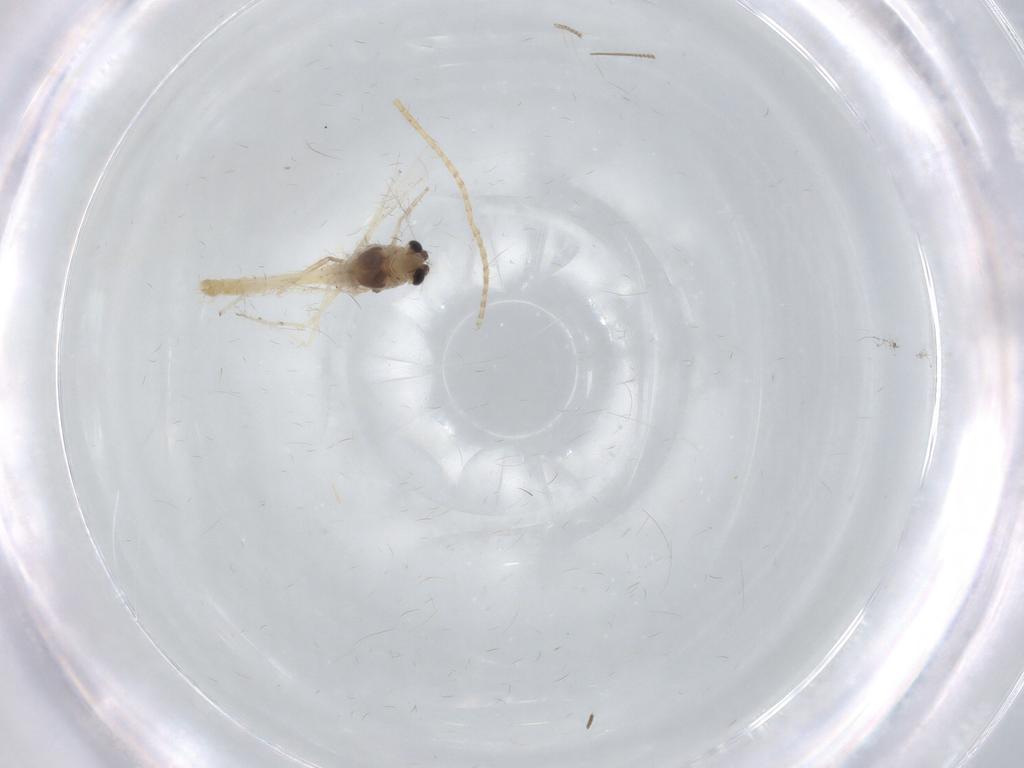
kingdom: Animalia
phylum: Arthropoda
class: Insecta
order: Diptera
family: Chironomidae
